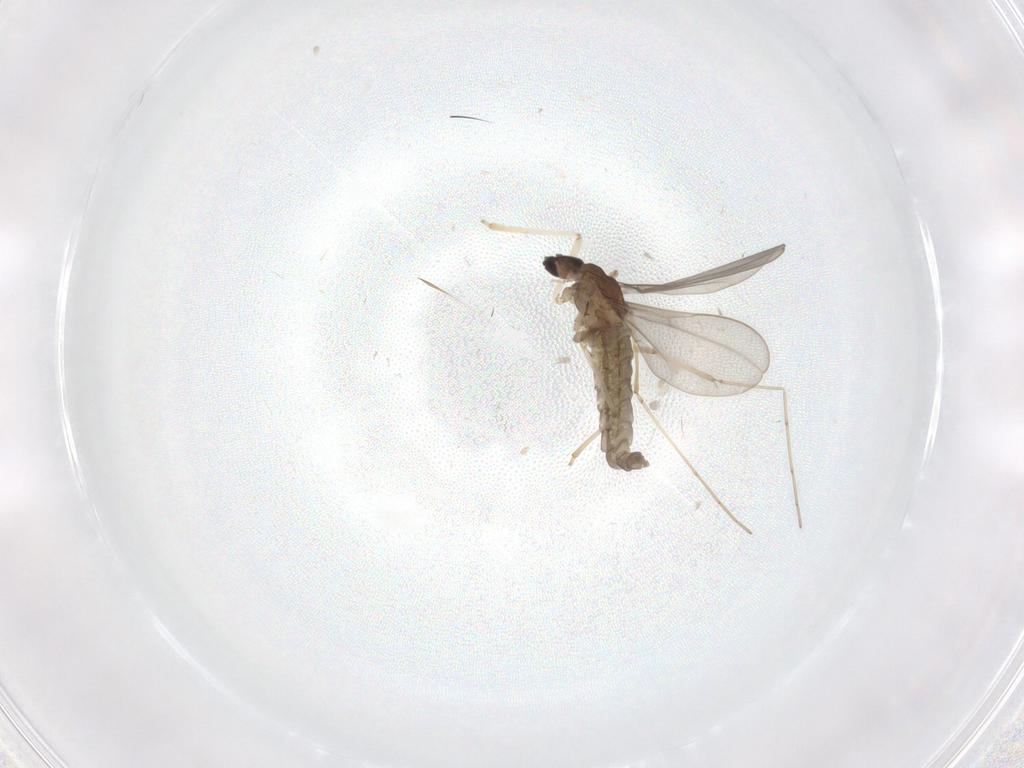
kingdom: Animalia
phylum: Arthropoda
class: Insecta
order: Diptera
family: Cecidomyiidae
